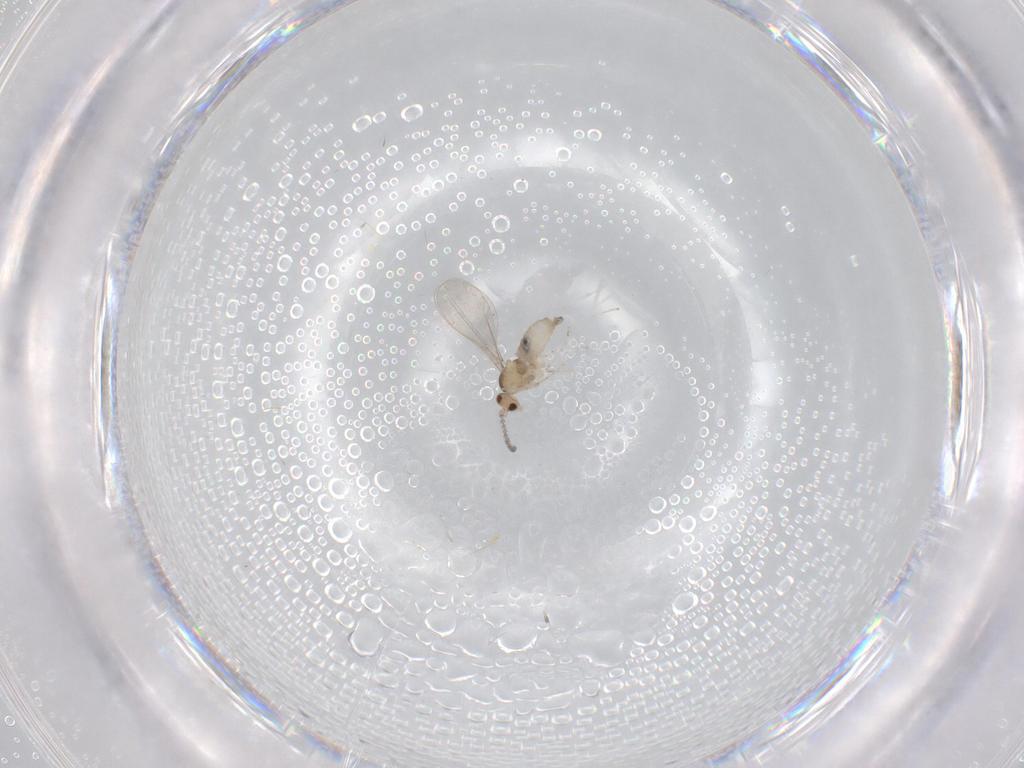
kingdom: Animalia
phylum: Arthropoda
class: Insecta
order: Diptera
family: Cecidomyiidae
